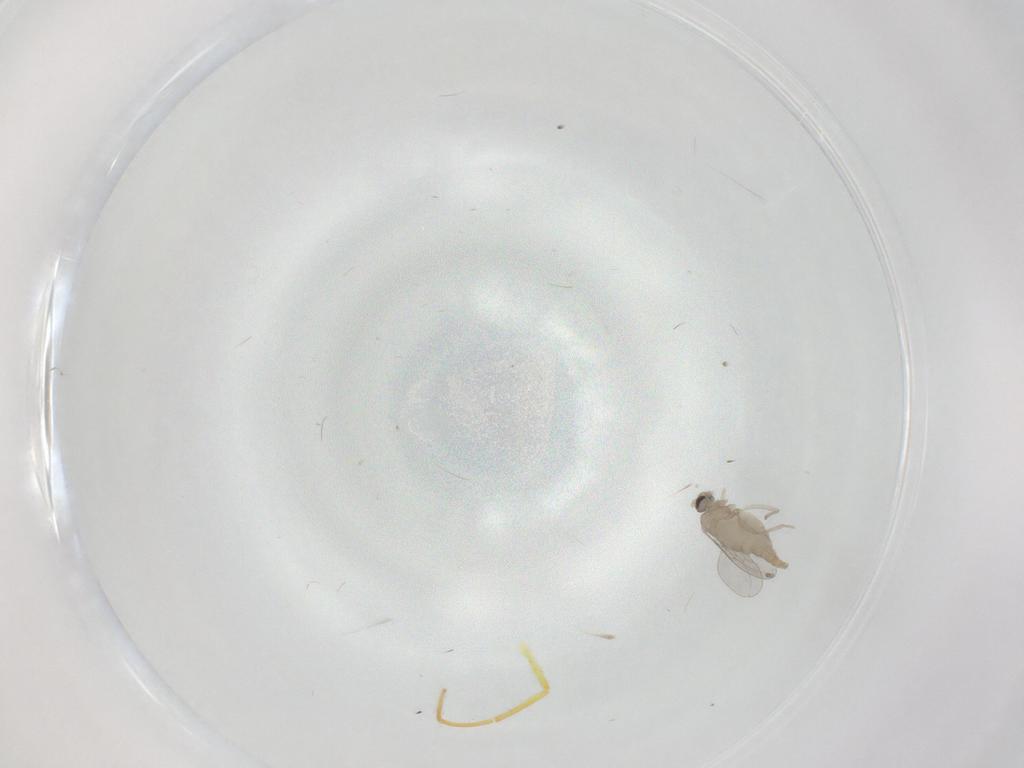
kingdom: Animalia
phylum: Arthropoda
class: Insecta
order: Diptera
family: Cecidomyiidae
